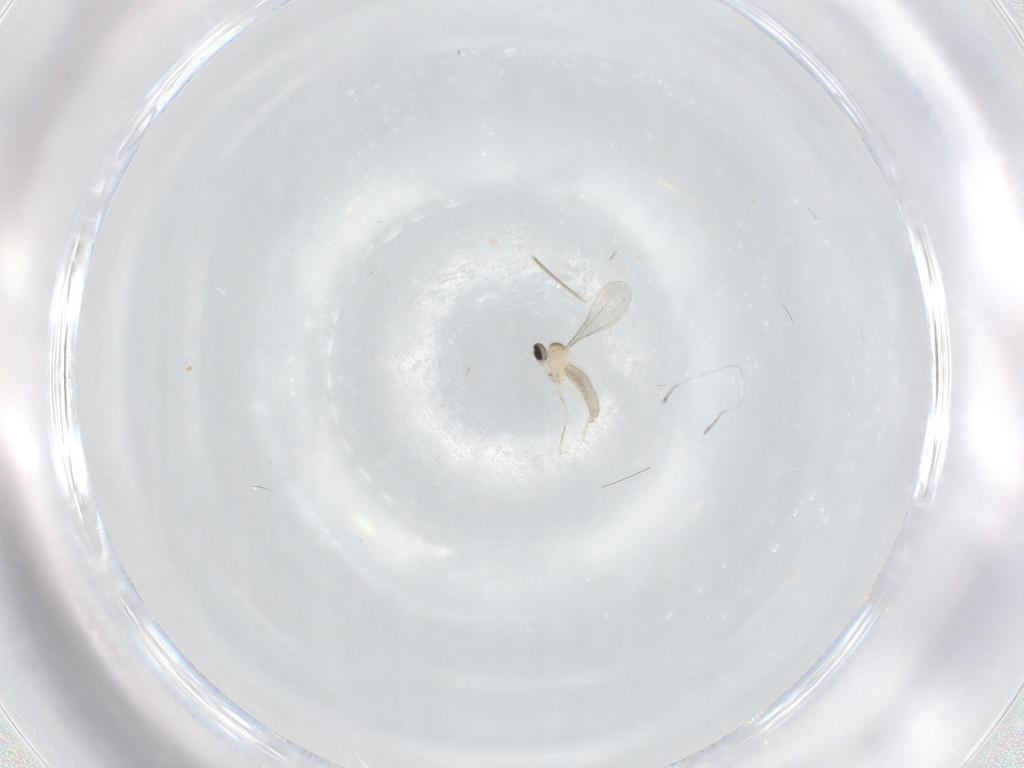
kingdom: Animalia
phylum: Arthropoda
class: Insecta
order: Diptera
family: Cecidomyiidae
